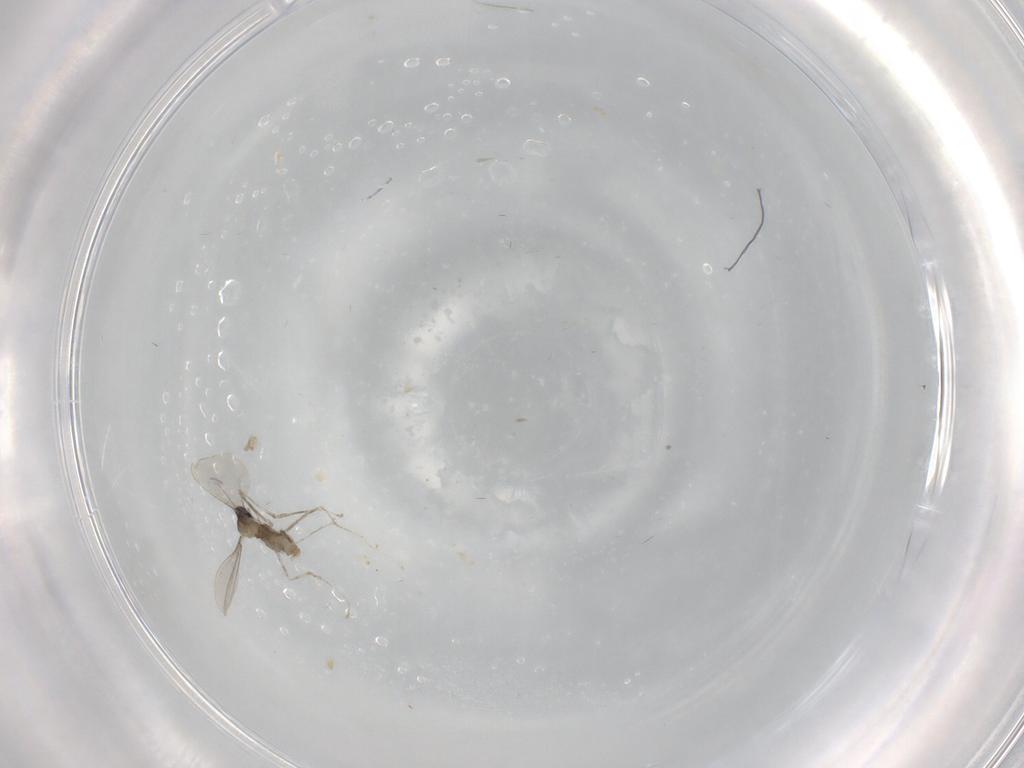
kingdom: Animalia
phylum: Arthropoda
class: Insecta
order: Diptera
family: Cecidomyiidae
